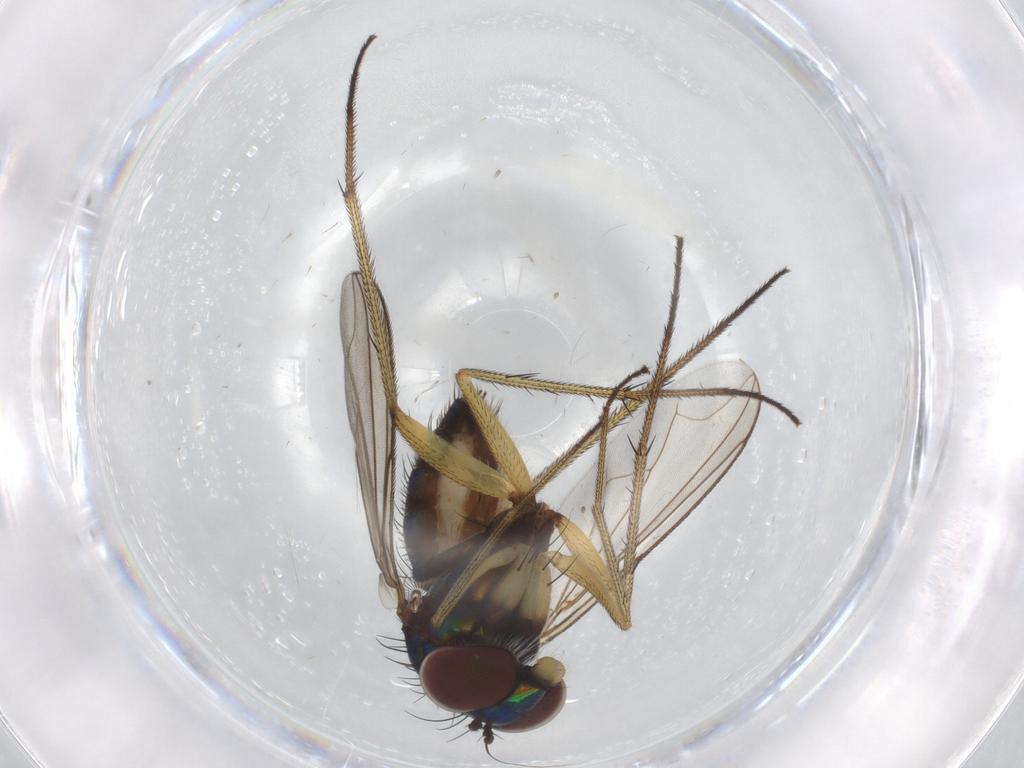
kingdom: Animalia
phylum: Arthropoda
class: Insecta
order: Diptera
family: Dolichopodidae
